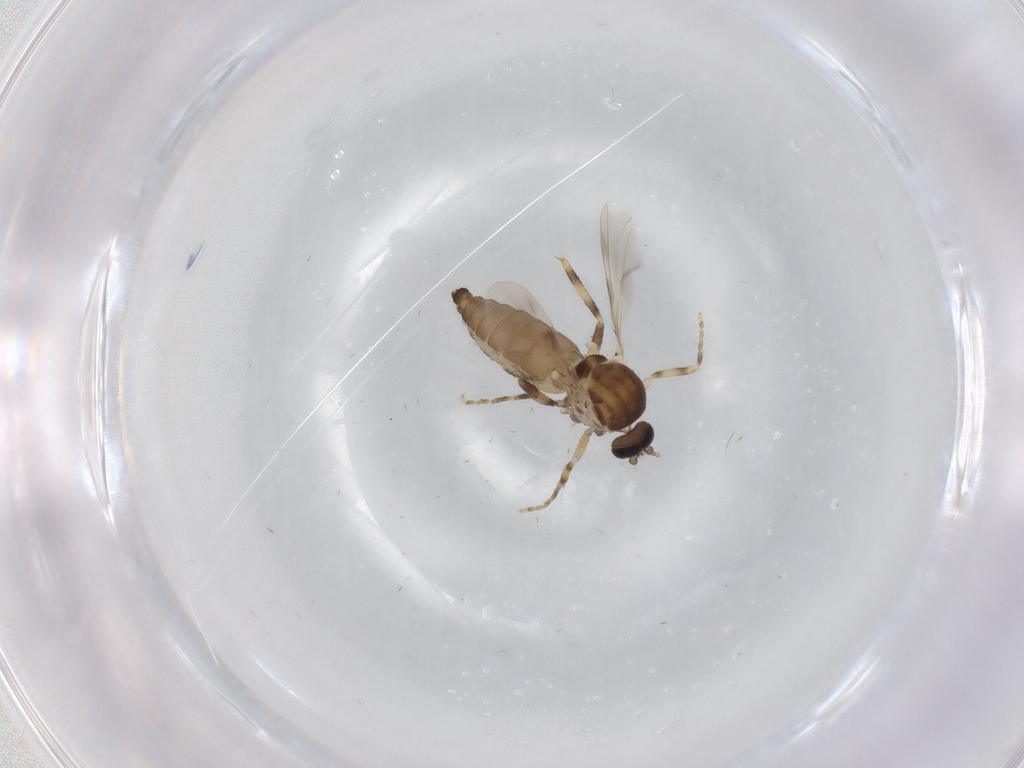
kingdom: Animalia
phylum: Arthropoda
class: Insecta
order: Diptera
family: Ceratopogonidae
